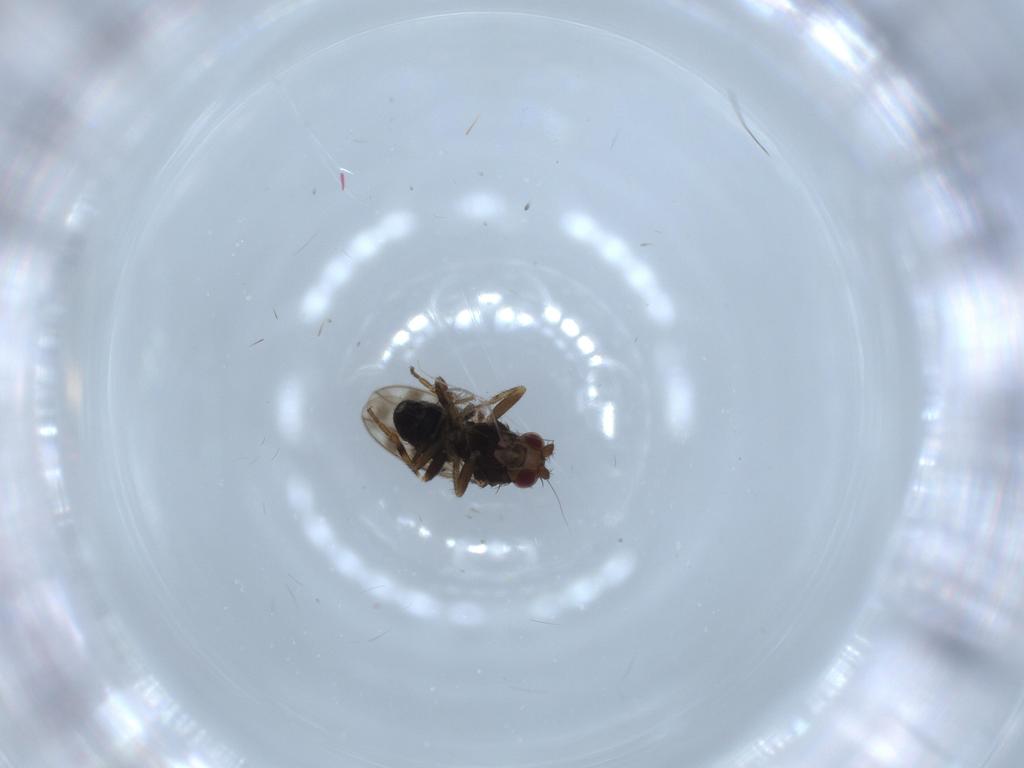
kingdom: Animalia
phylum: Arthropoda
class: Insecta
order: Diptera
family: Sphaeroceridae
